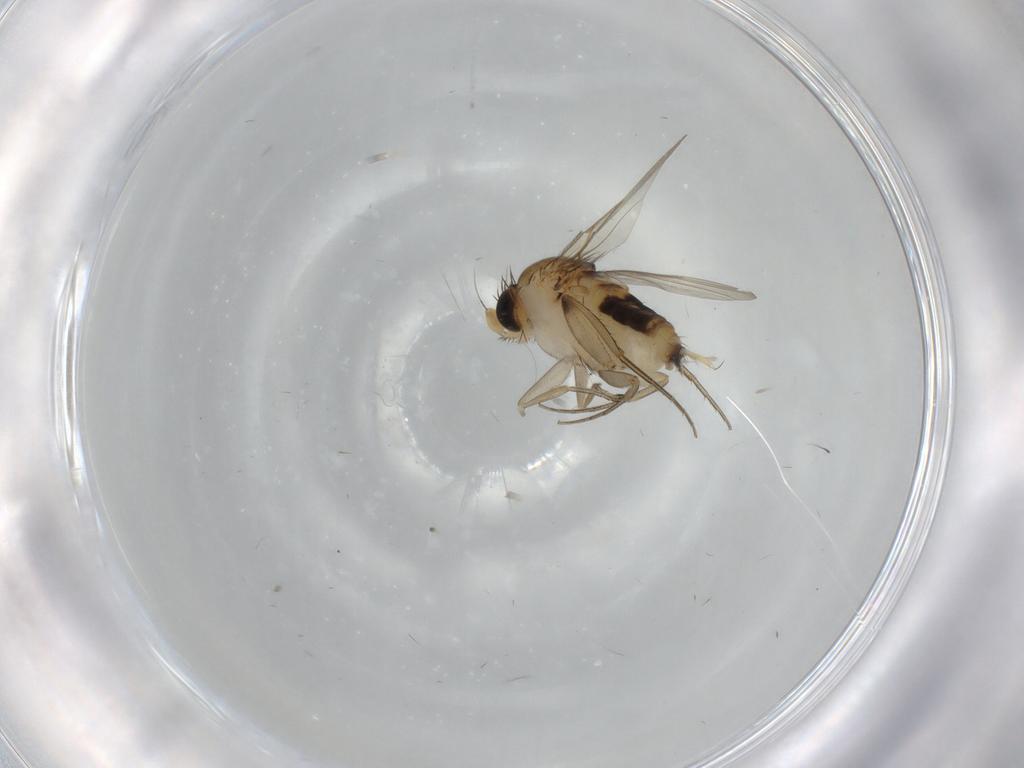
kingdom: Animalia
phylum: Arthropoda
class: Insecta
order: Diptera
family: Phoridae
